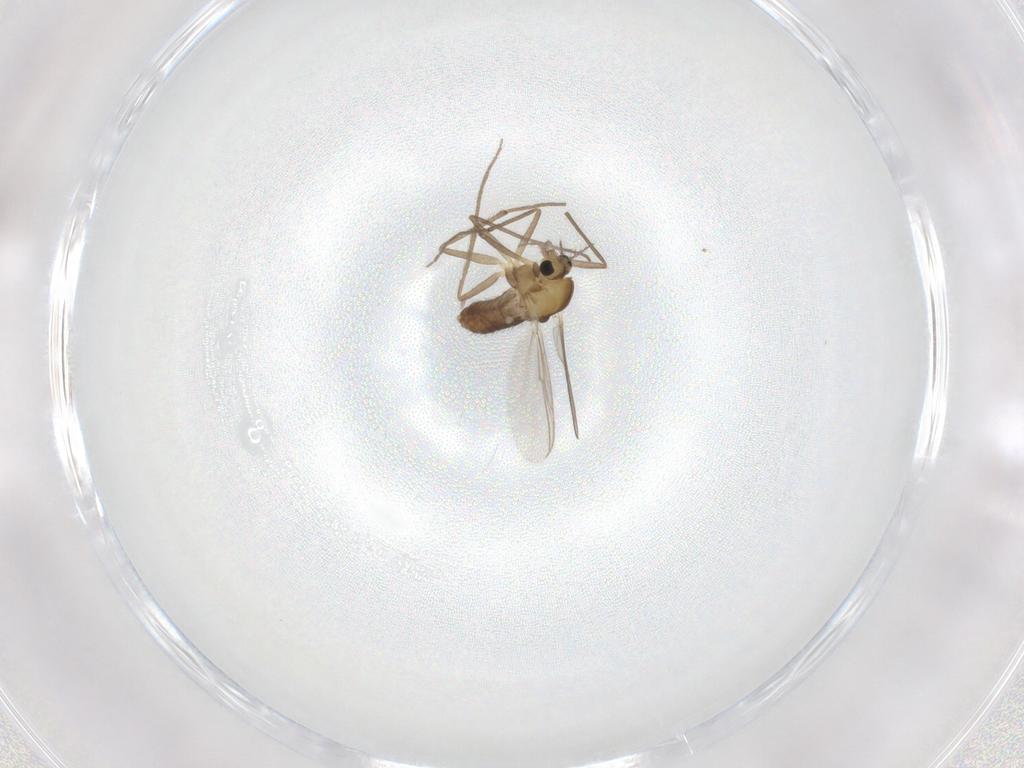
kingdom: Animalia
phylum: Arthropoda
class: Insecta
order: Diptera
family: Chironomidae
